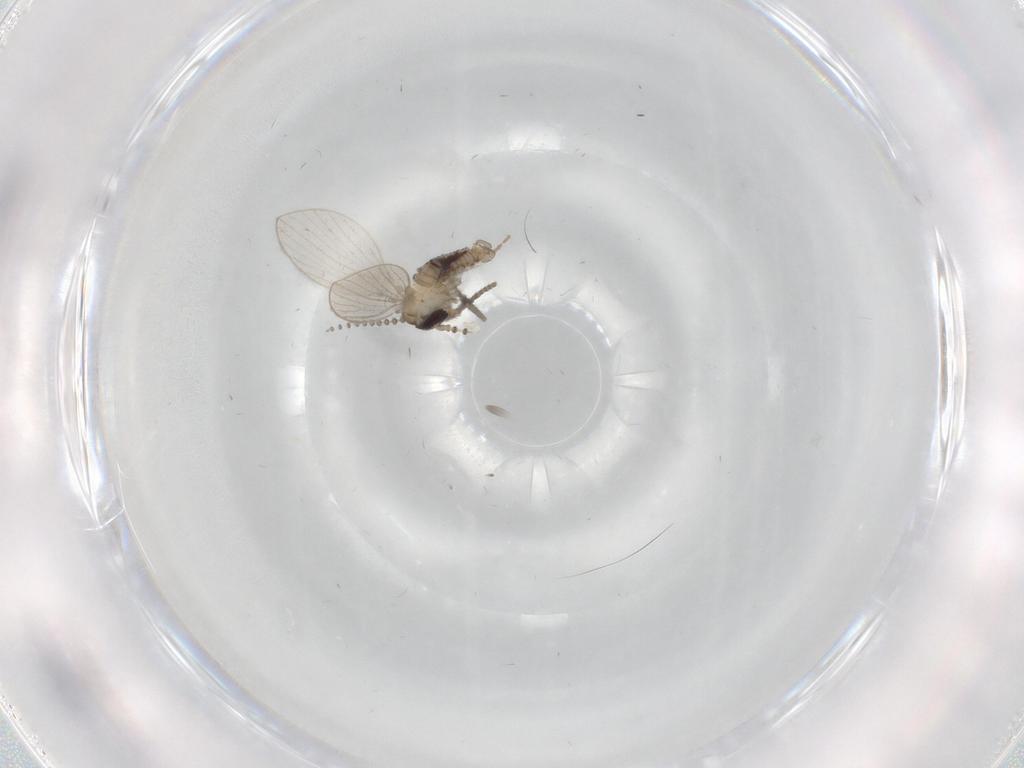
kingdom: Animalia
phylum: Arthropoda
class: Insecta
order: Diptera
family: Psychodidae
